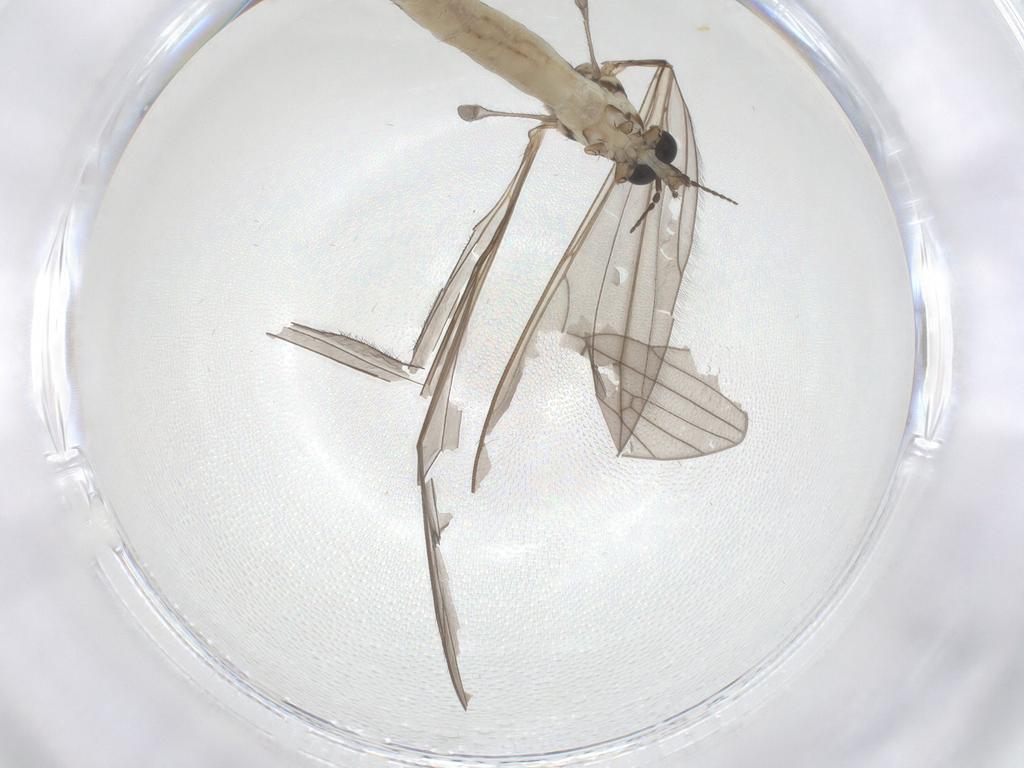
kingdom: Animalia
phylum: Arthropoda
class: Insecta
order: Diptera
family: Limoniidae
